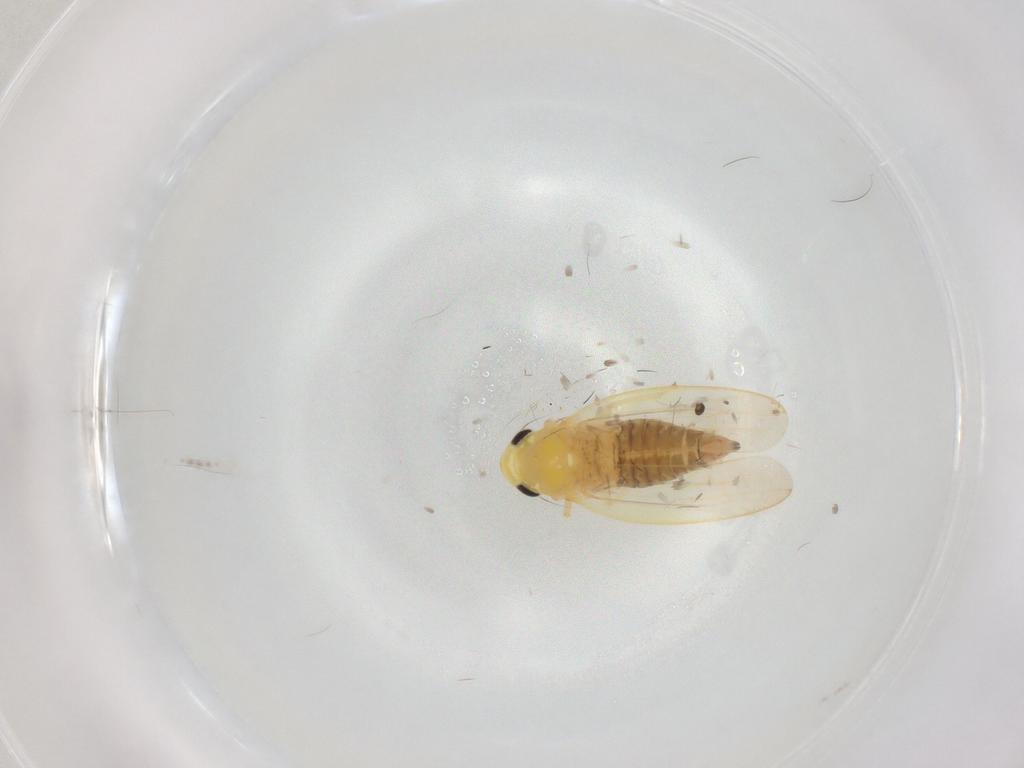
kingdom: Animalia
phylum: Arthropoda
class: Insecta
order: Hemiptera
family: Cicadellidae
